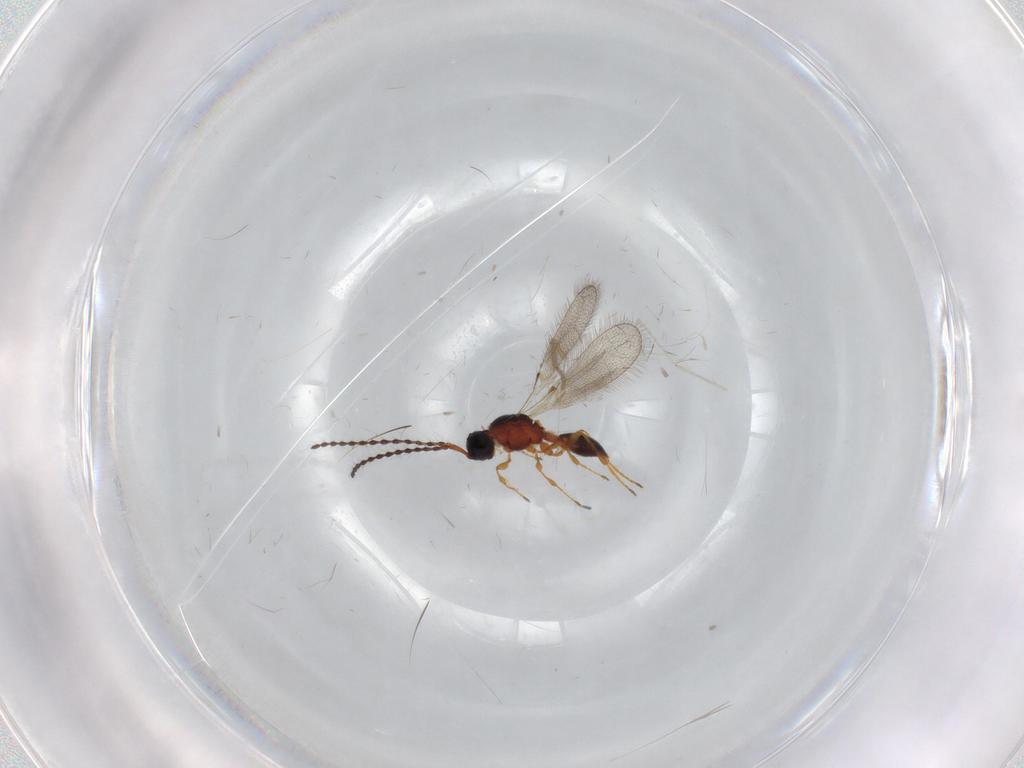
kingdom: Animalia
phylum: Arthropoda
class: Insecta
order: Hymenoptera
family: Diapriidae
